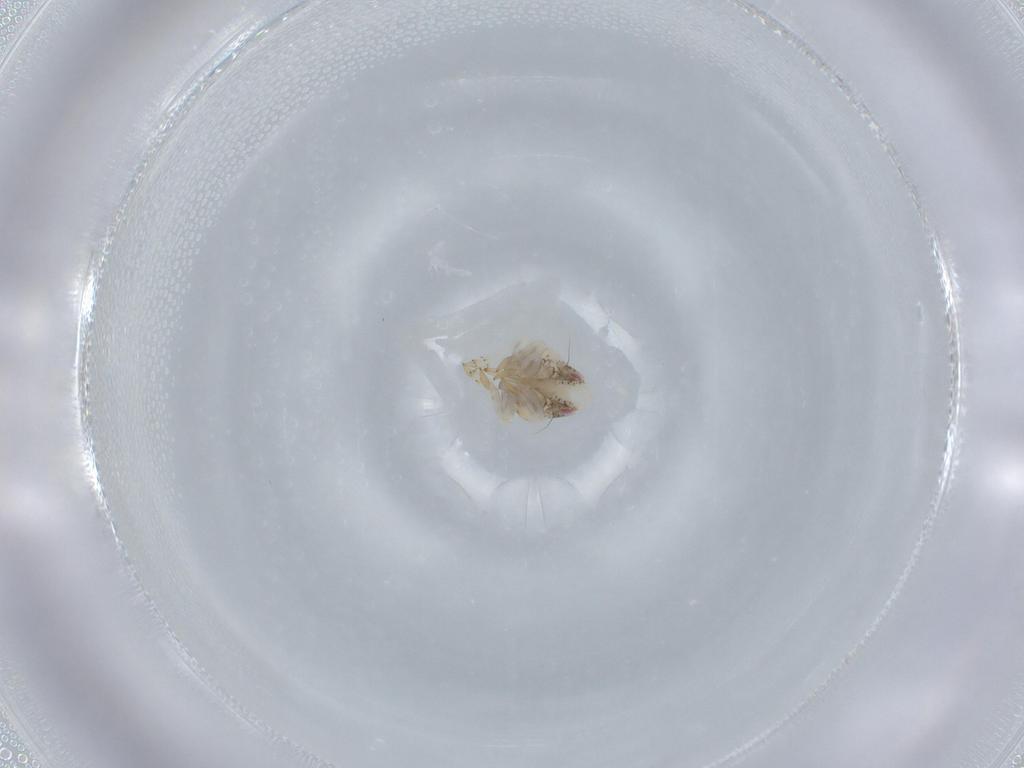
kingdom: Animalia
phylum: Arthropoda
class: Insecta
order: Hemiptera
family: Acanaloniidae
